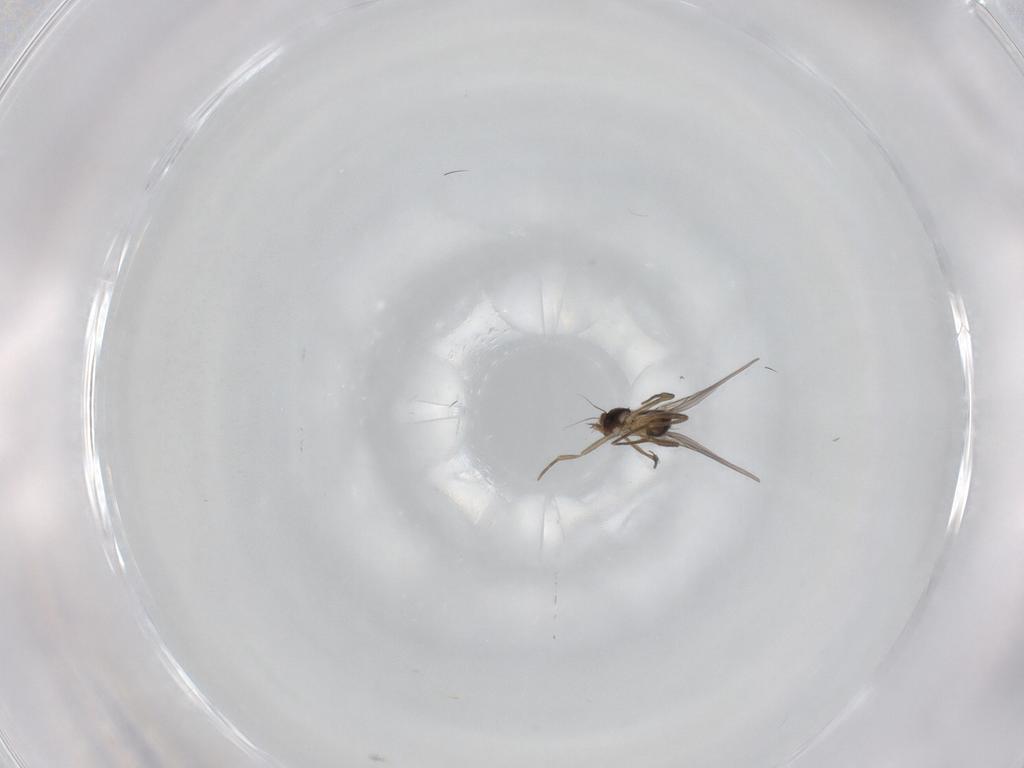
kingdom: Animalia
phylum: Arthropoda
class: Insecta
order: Diptera
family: Phoridae
